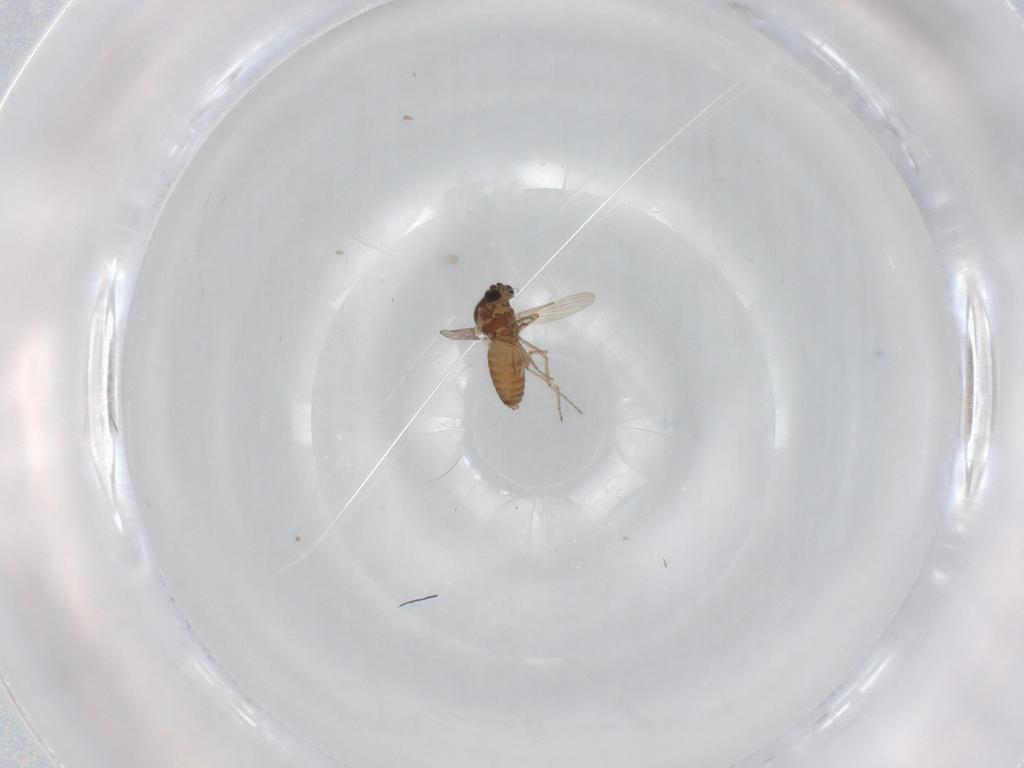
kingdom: Animalia
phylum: Arthropoda
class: Insecta
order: Diptera
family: Ceratopogonidae
